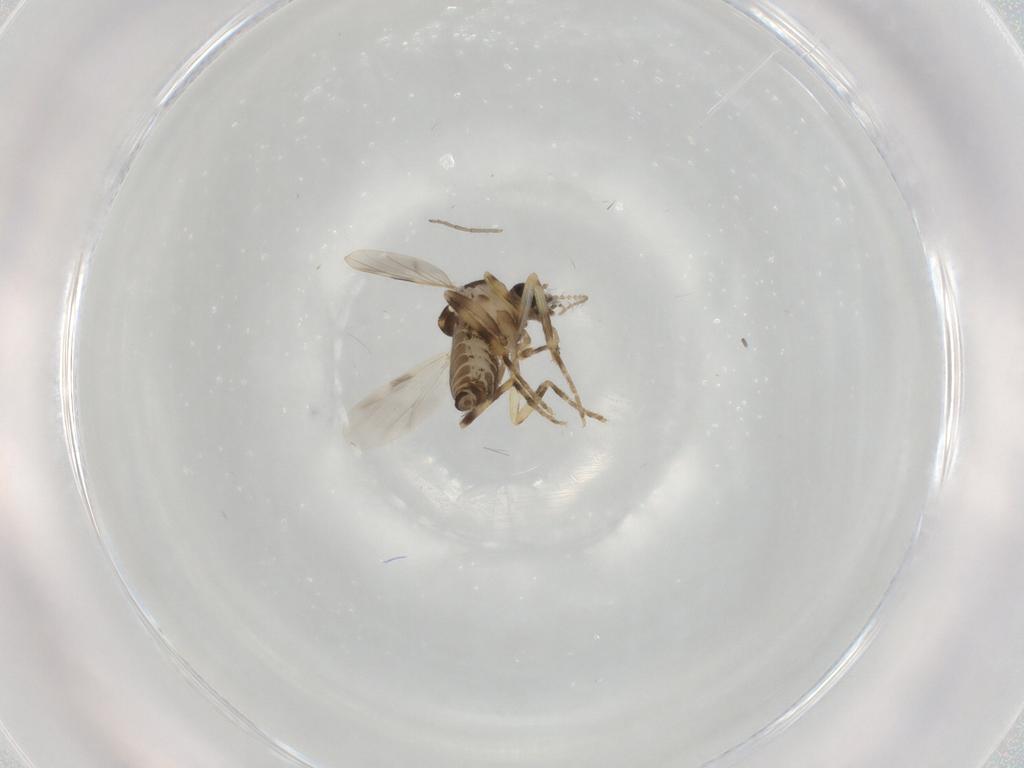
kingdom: Animalia
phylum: Arthropoda
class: Insecta
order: Diptera
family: Ceratopogonidae
